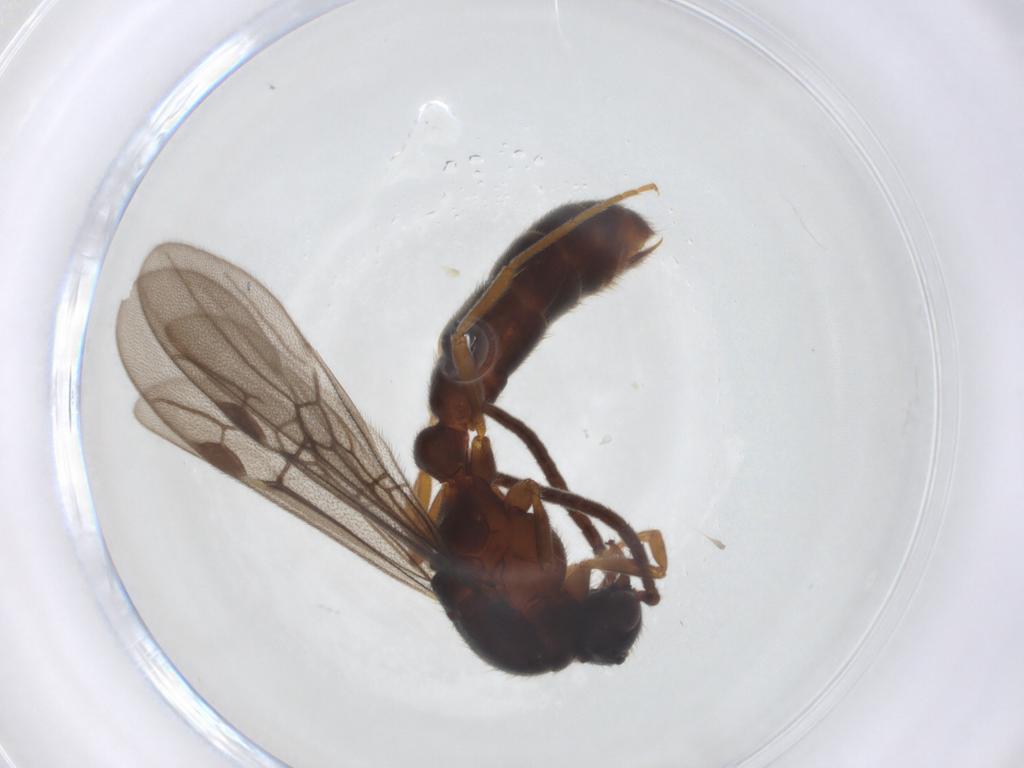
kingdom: Animalia
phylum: Arthropoda
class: Insecta
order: Hymenoptera
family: Formicidae
